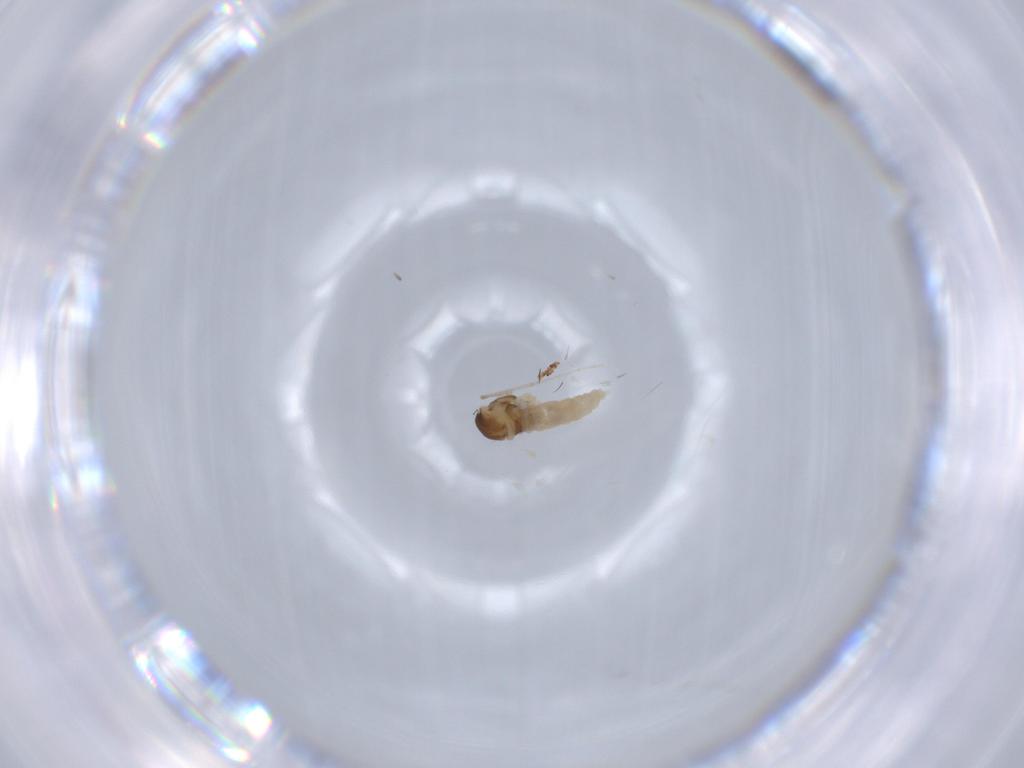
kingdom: Animalia
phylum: Arthropoda
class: Insecta
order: Diptera
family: Cecidomyiidae
